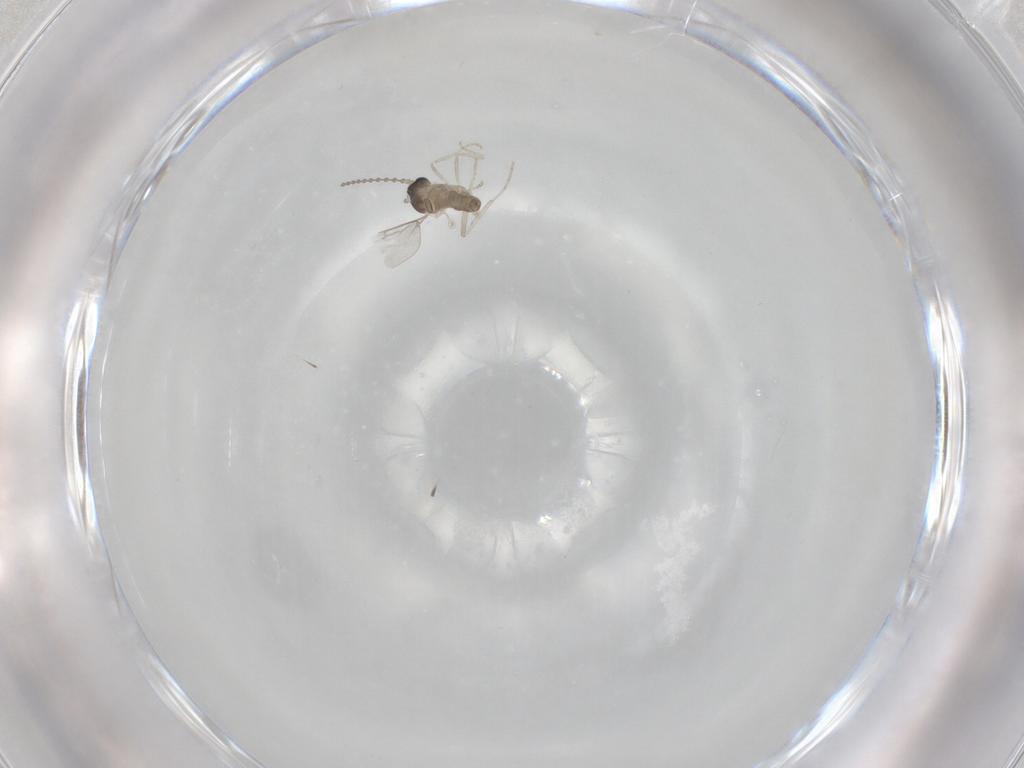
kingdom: Animalia
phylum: Arthropoda
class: Insecta
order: Diptera
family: Cecidomyiidae
